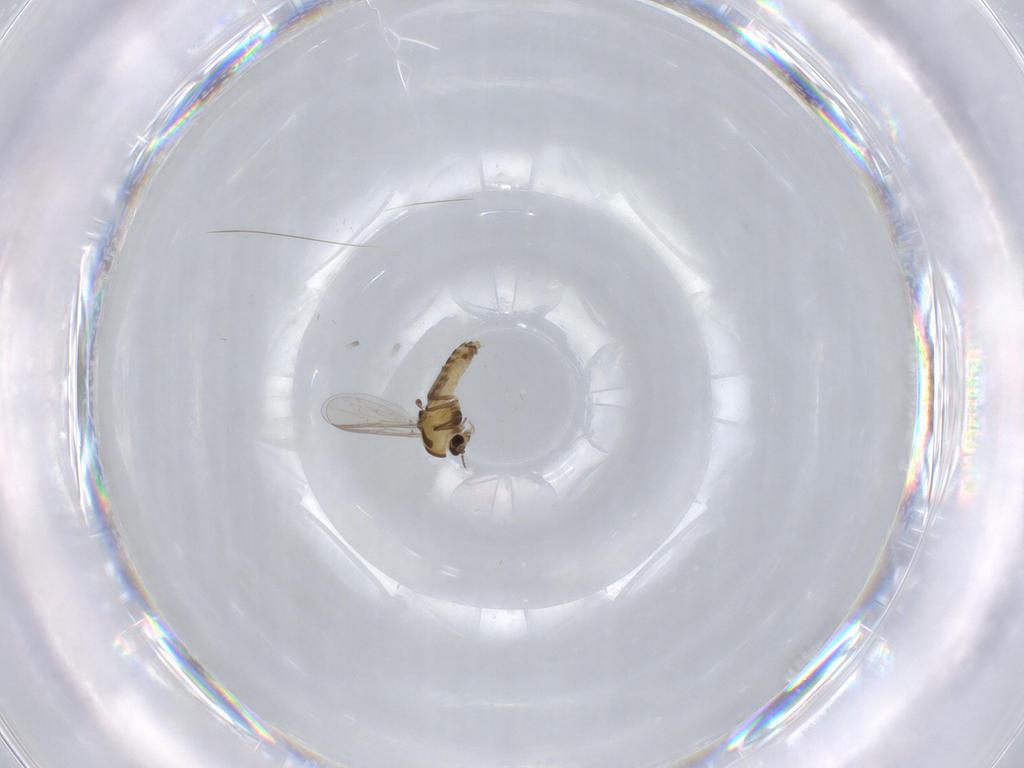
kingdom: Animalia
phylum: Arthropoda
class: Insecta
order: Diptera
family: Chironomidae
